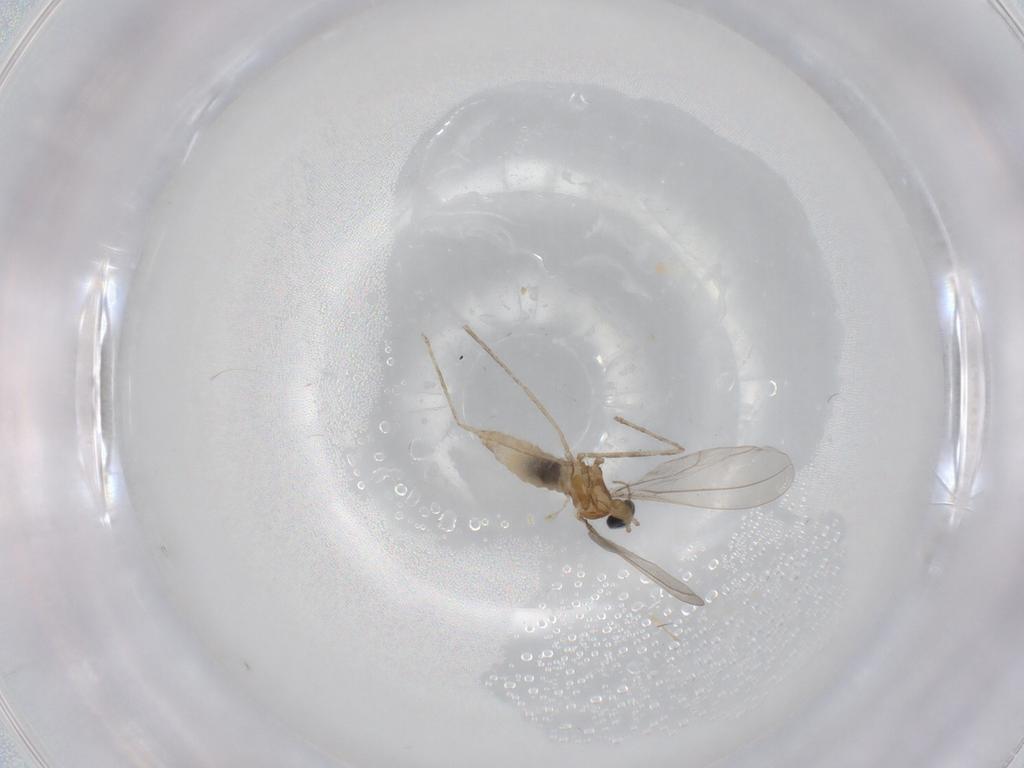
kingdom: Animalia
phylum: Arthropoda
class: Insecta
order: Diptera
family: Cecidomyiidae
